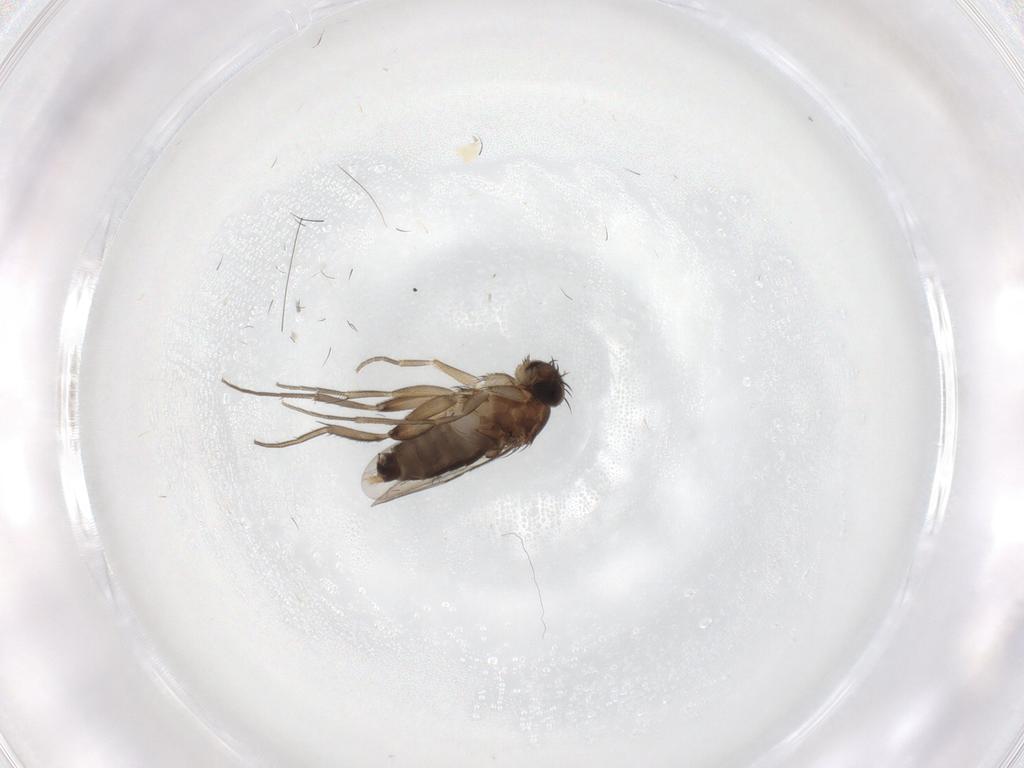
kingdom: Animalia
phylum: Arthropoda
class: Insecta
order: Diptera
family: Phoridae
